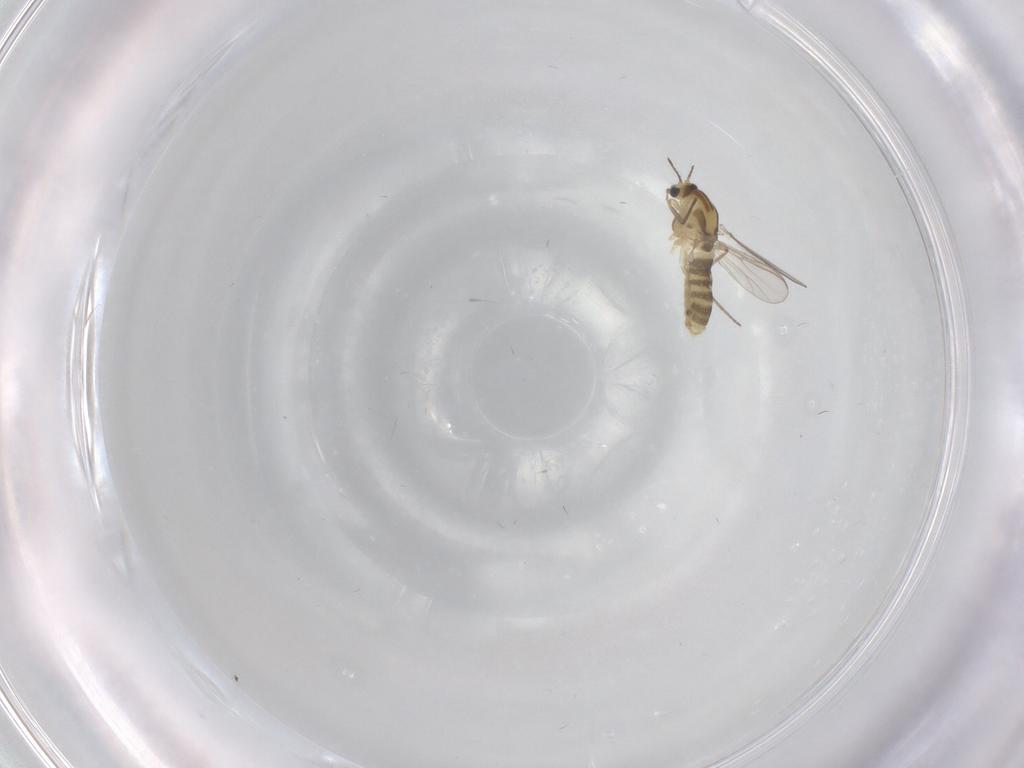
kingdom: Animalia
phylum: Arthropoda
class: Insecta
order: Diptera
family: Limoniidae
